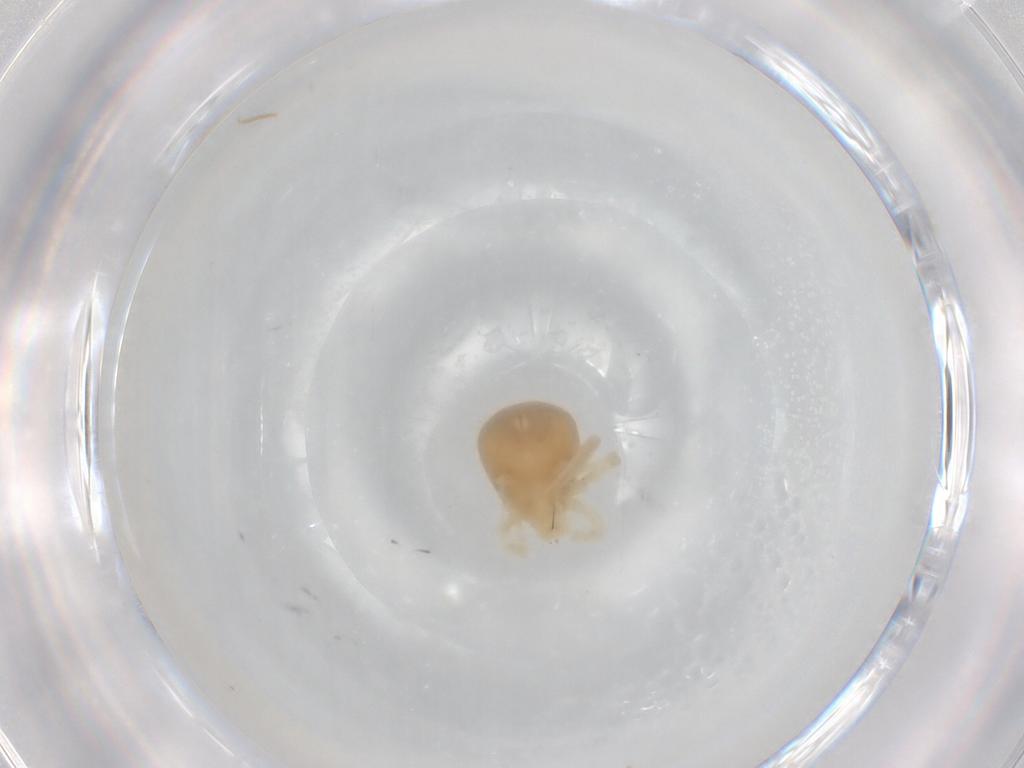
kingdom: Animalia
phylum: Arthropoda
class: Arachnida
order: Trombidiformes
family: Anystidae
